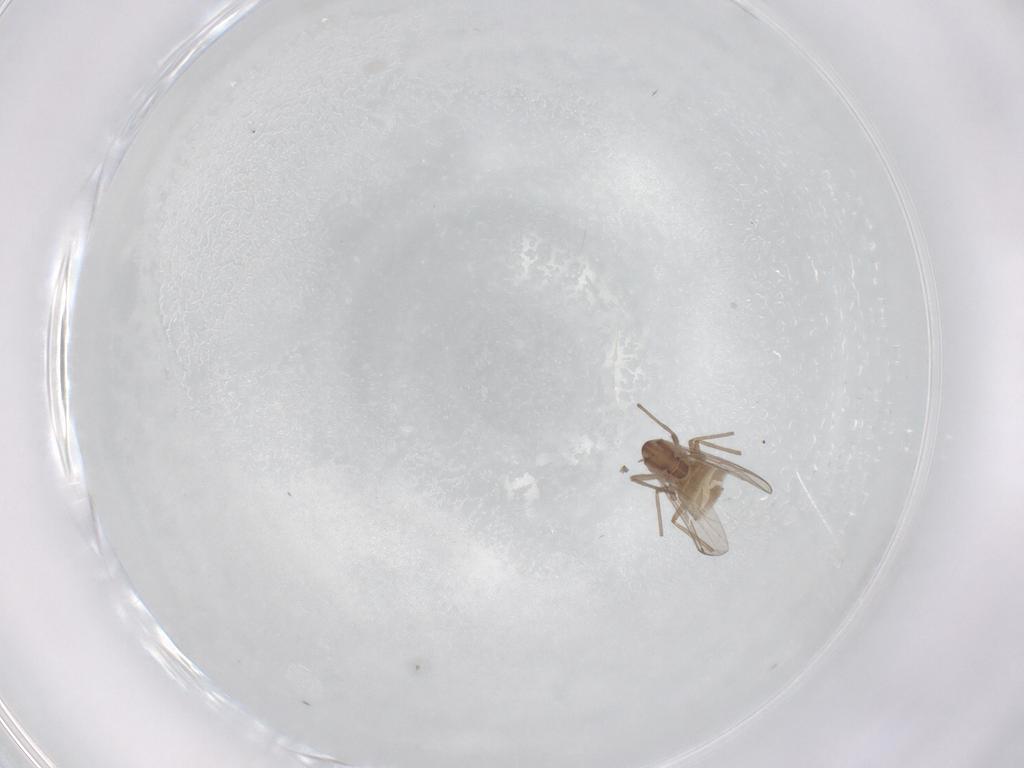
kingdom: Animalia
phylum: Arthropoda
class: Insecta
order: Diptera
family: Chironomidae
